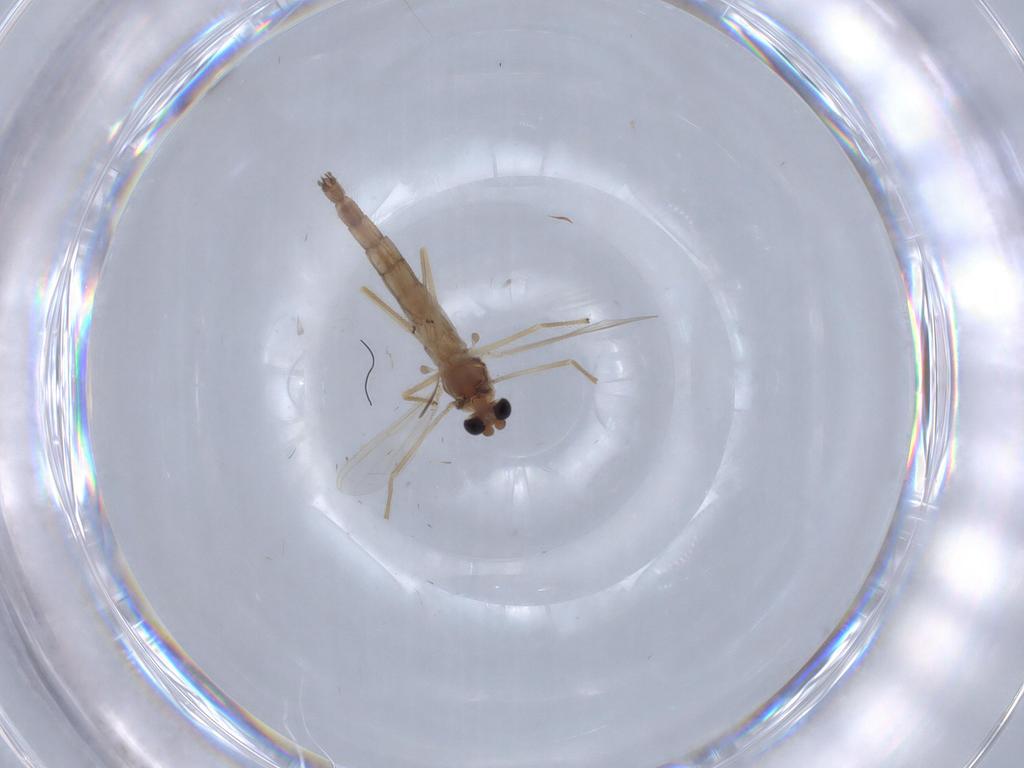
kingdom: Animalia
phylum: Arthropoda
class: Insecta
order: Diptera
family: Chironomidae
